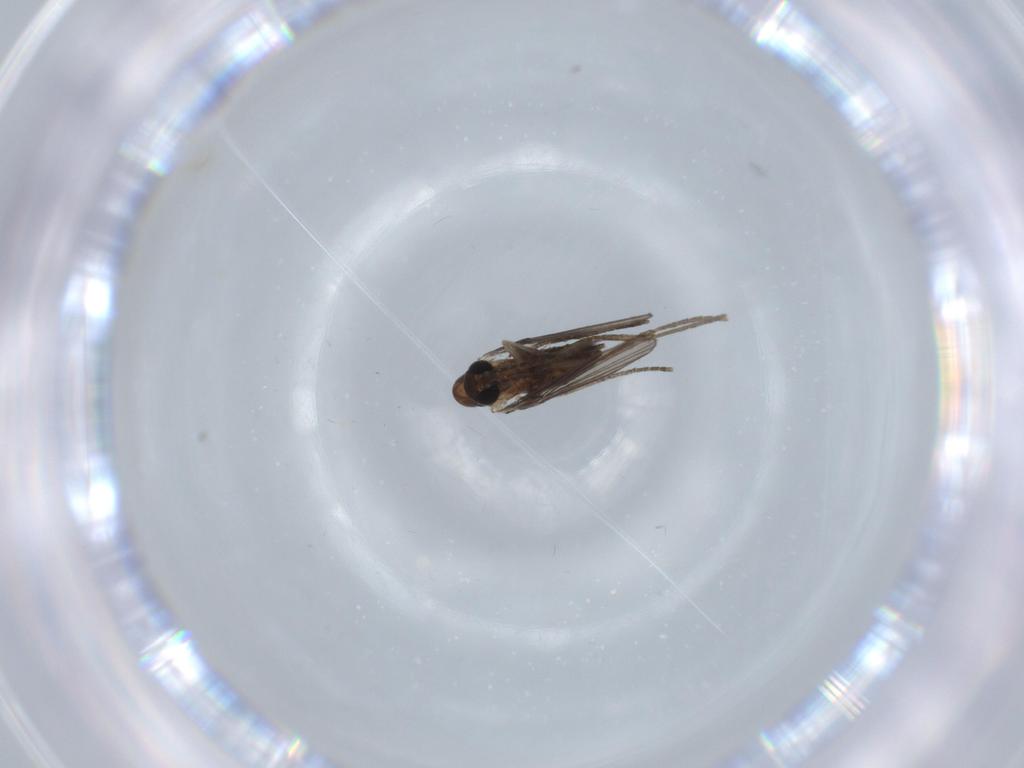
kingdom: Animalia
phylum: Arthropoda
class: Insecta
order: Diptera
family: Psychodidae
